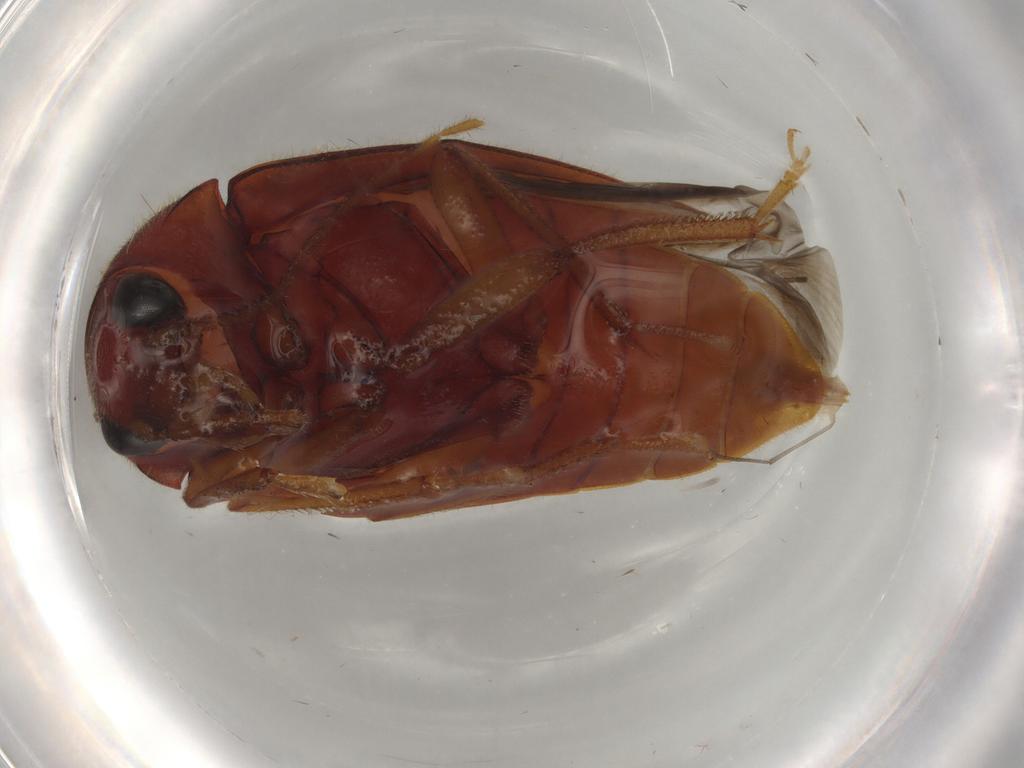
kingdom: Animalia
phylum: Arthropoda
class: Insecta
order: Coleoptera
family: Ptilodactylidae
